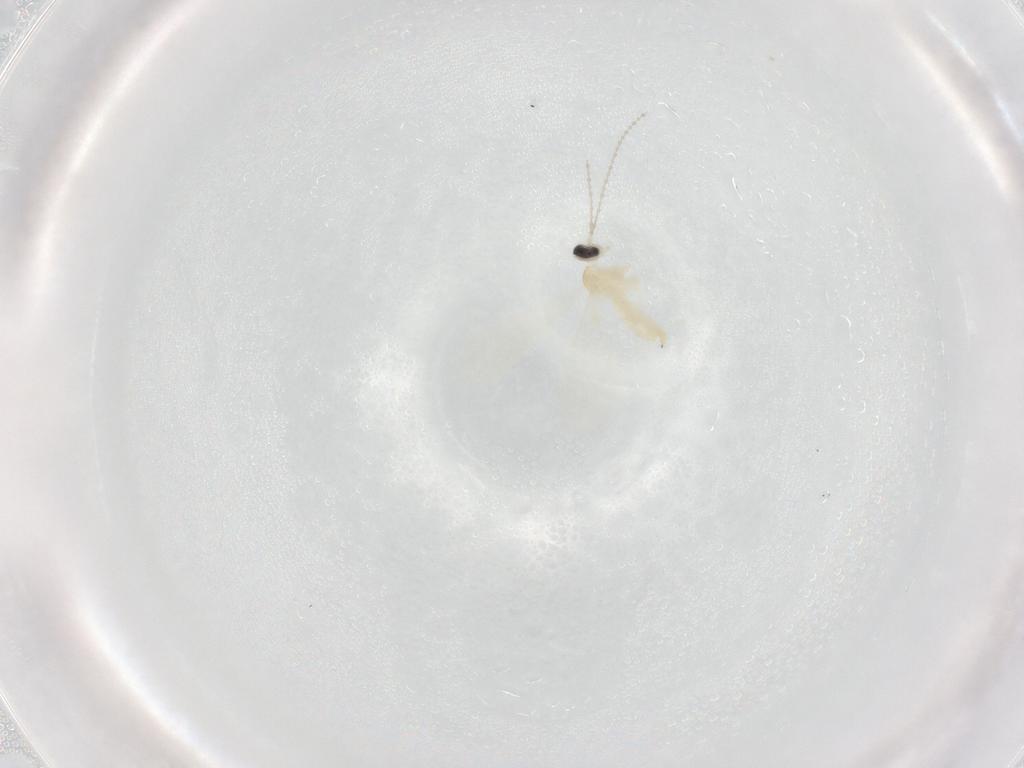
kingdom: Animalia
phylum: Arthropoda
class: Insecta
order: Diptera
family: Cecidomyiidae
